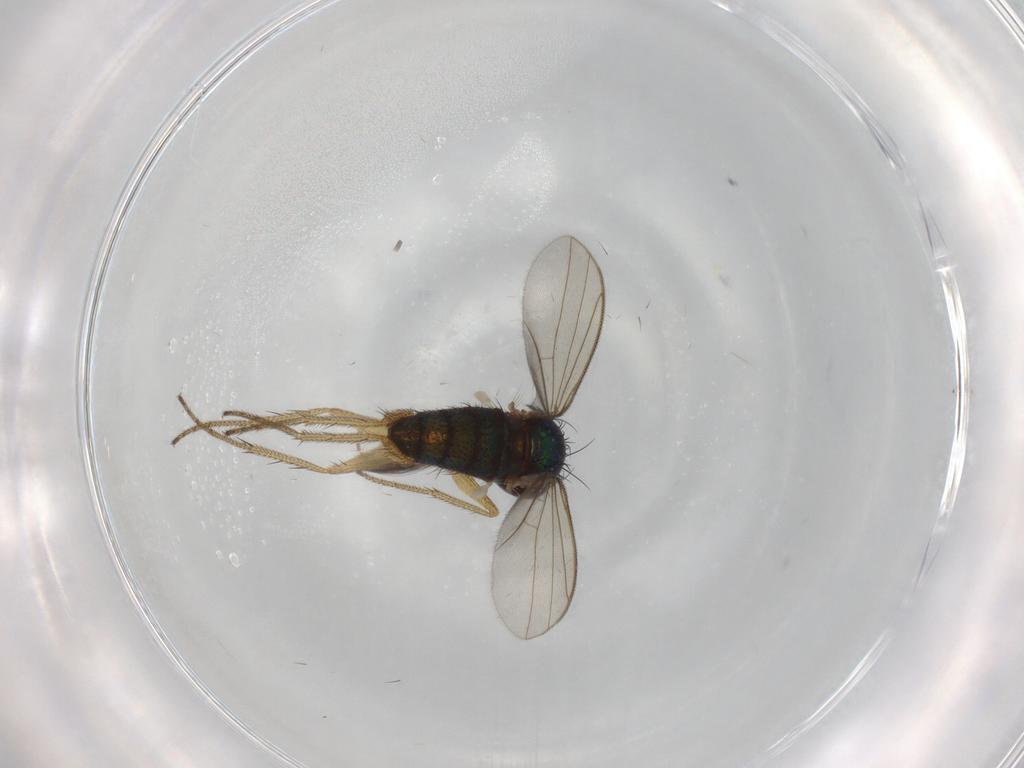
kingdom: Animalia
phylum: Arthropoda
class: Insecta
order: Diptera
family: Dolichopodidae
